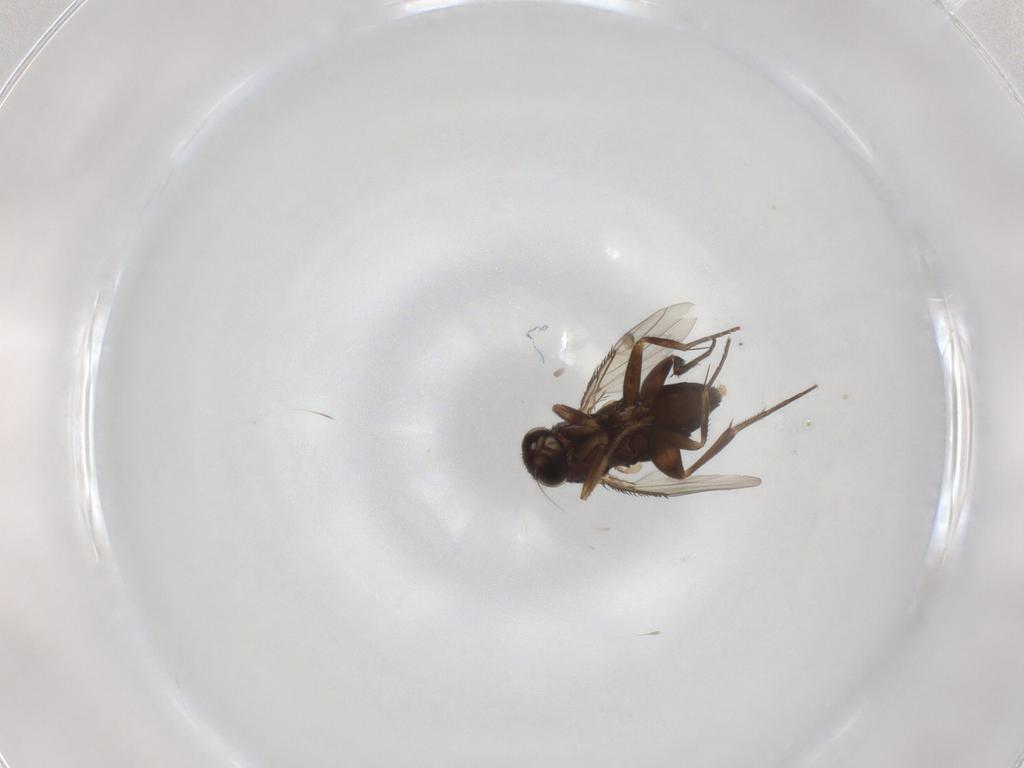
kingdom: Animalia
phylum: Arthropoda
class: Insecta
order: Diptera
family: Phoridae
